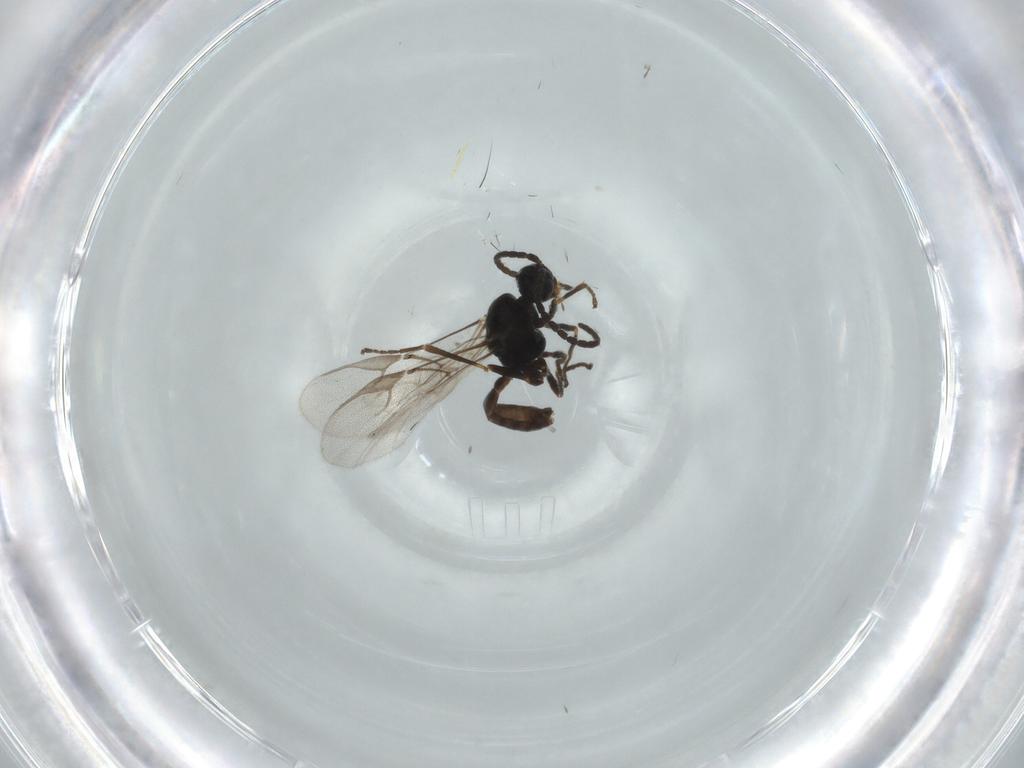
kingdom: Animalia
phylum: Arthropoda
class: Insecta
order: Hymenoptera
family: Braconidae
